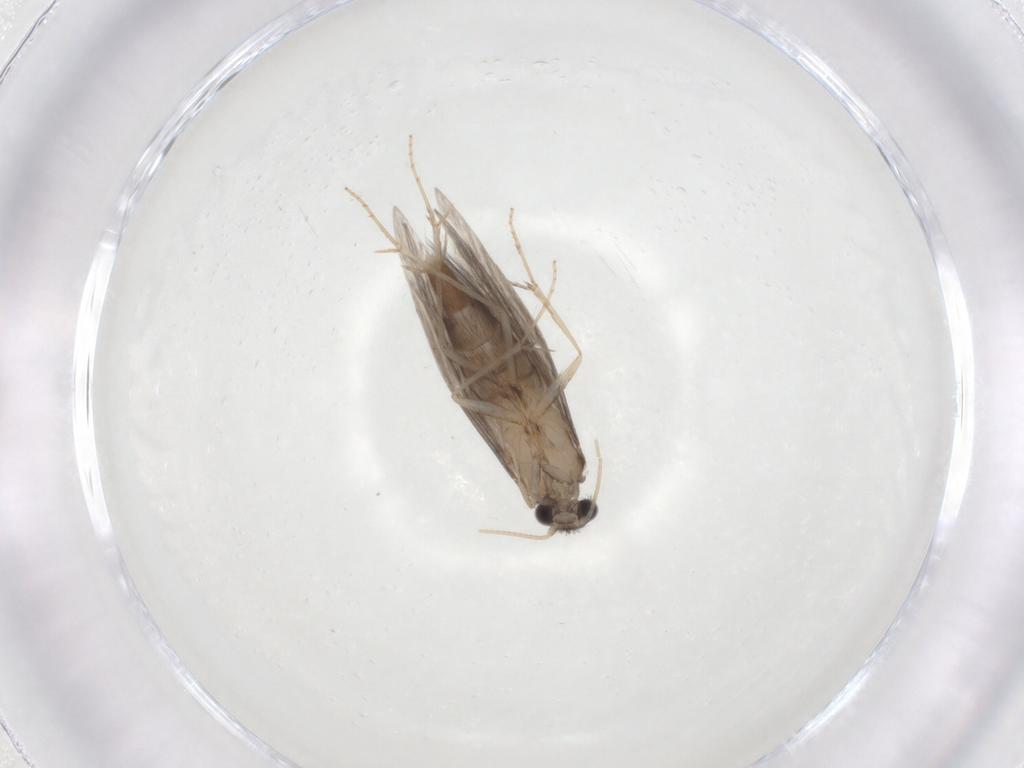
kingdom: Animalia
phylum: Arthropoda
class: Insecta
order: Trichoptera
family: Hydroptilidae
